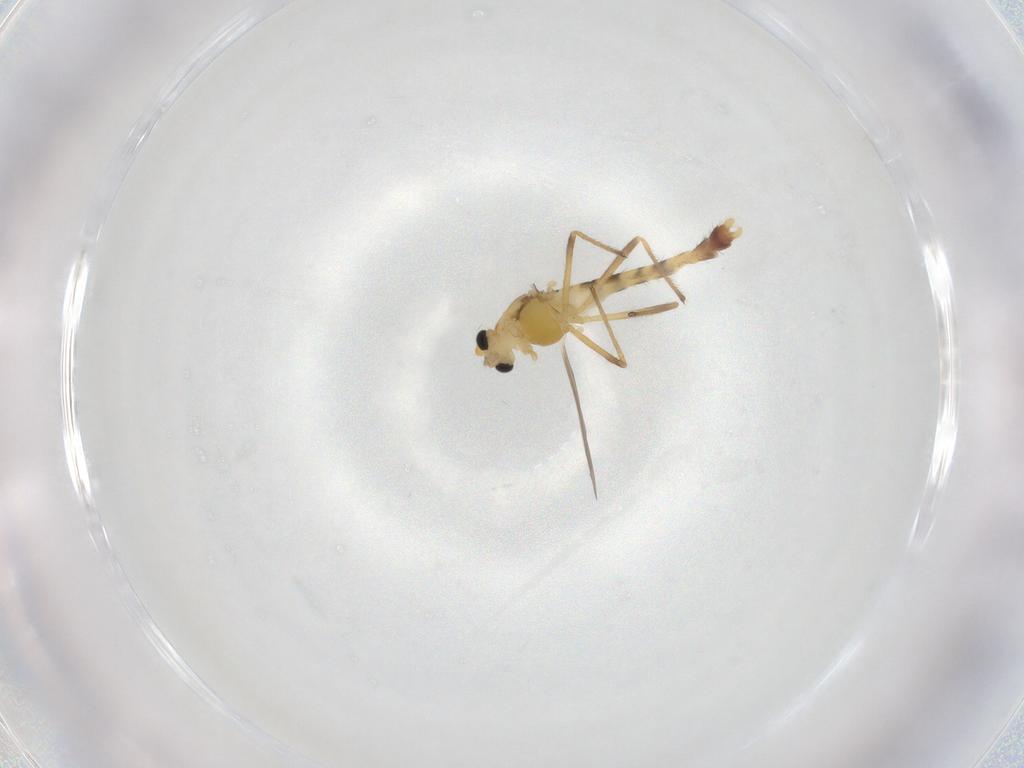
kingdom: Animalia
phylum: Arthropoda
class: Insecta
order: Diptera
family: Chironomidae
